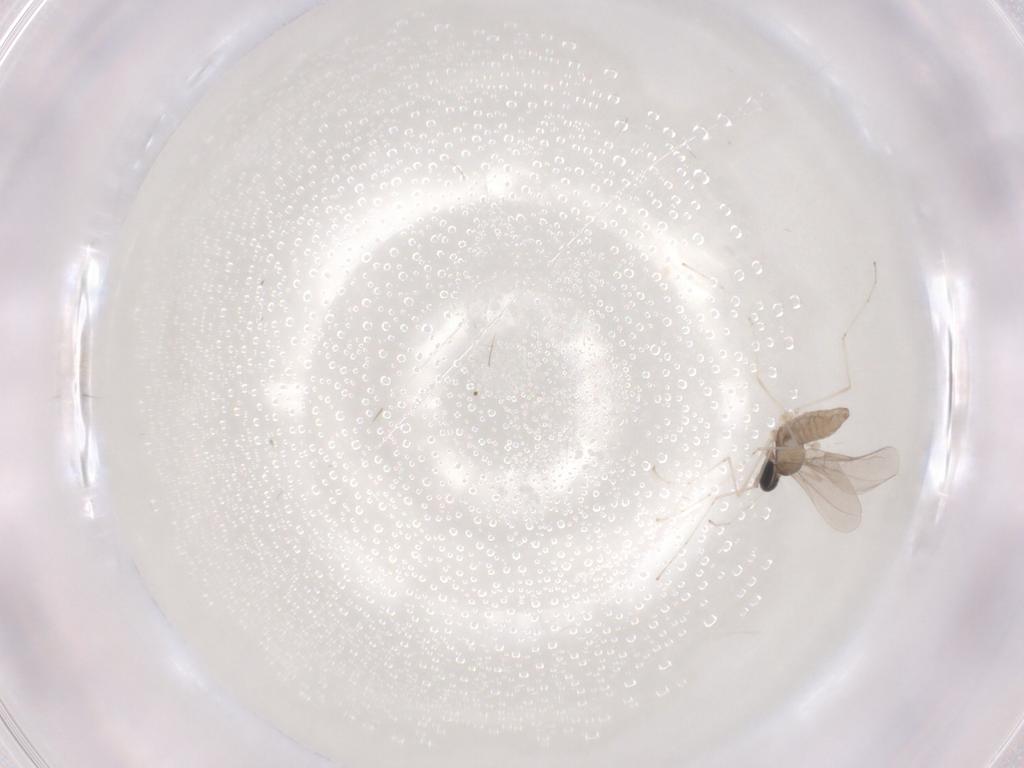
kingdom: Animalia
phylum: Arthropoda
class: Insecta
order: Diptera
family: Cecidomyiidae
